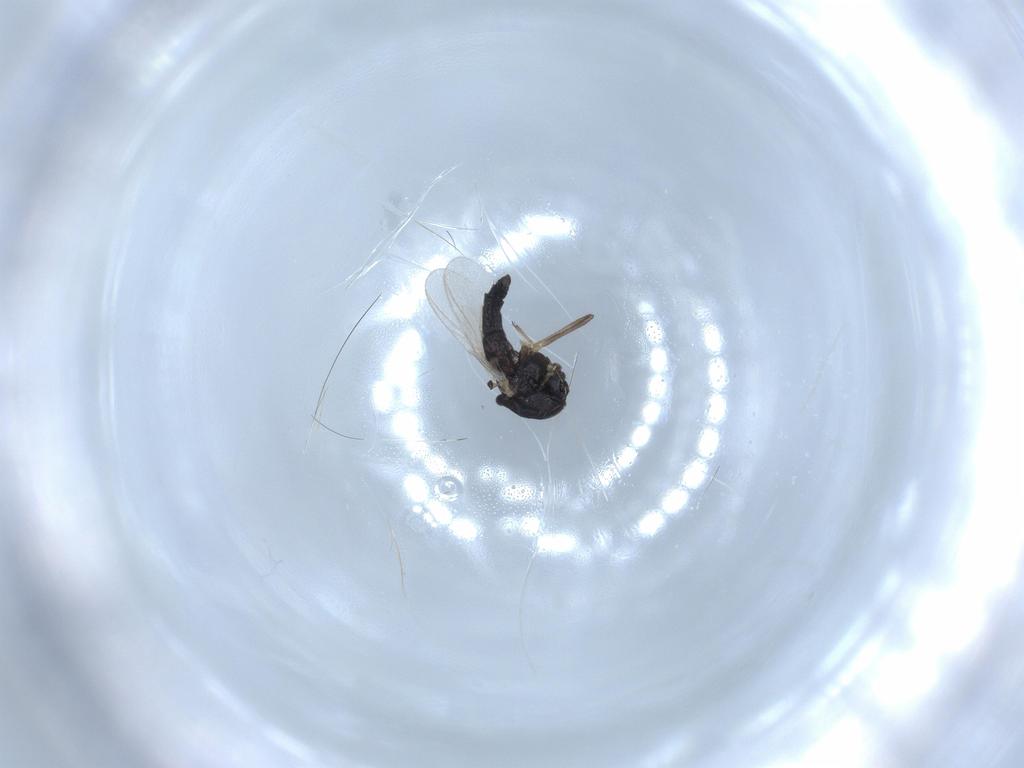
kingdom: Animalia
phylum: Arthropoda
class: Insecta
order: Diptera
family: Chironomidae
